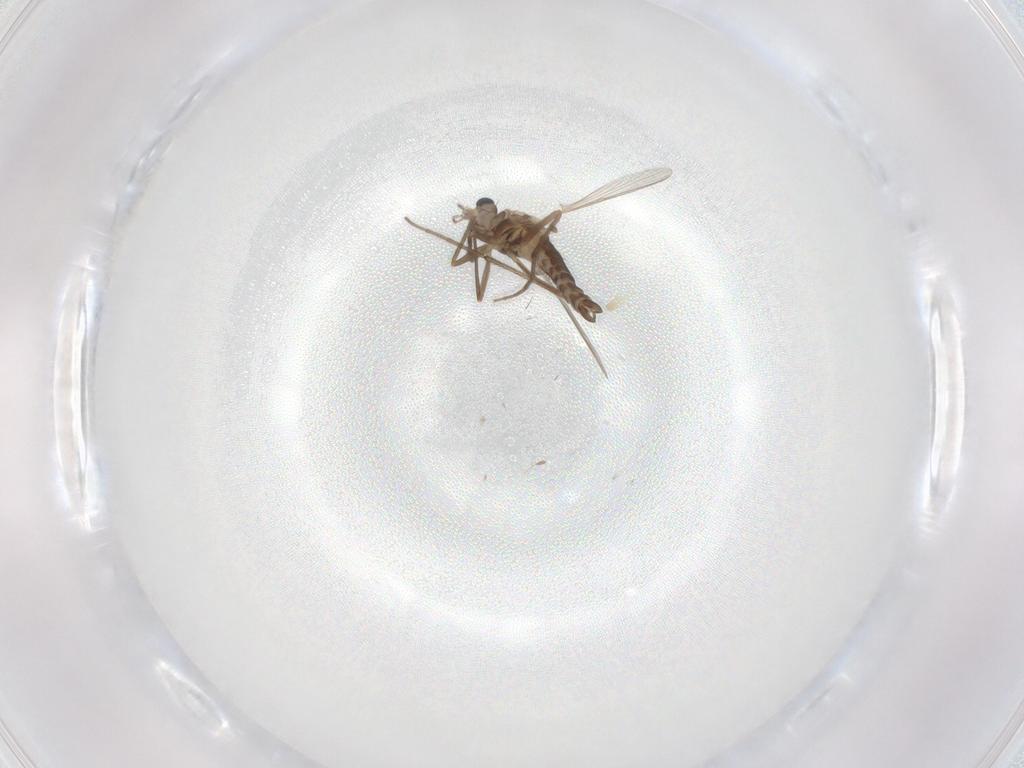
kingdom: Animalia
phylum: Arthropoda
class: Insecta
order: Diptera
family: Chironomidae
